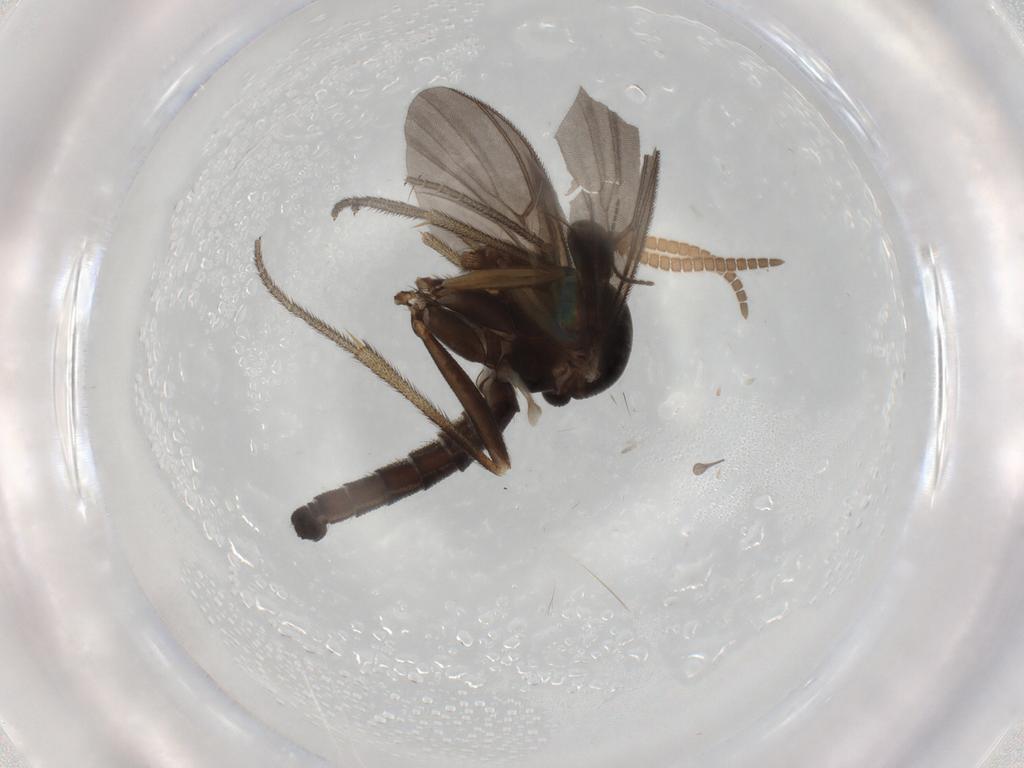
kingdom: Animalia
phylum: Arthropoda
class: Insecta
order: Diptera
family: Mycetophilidae
